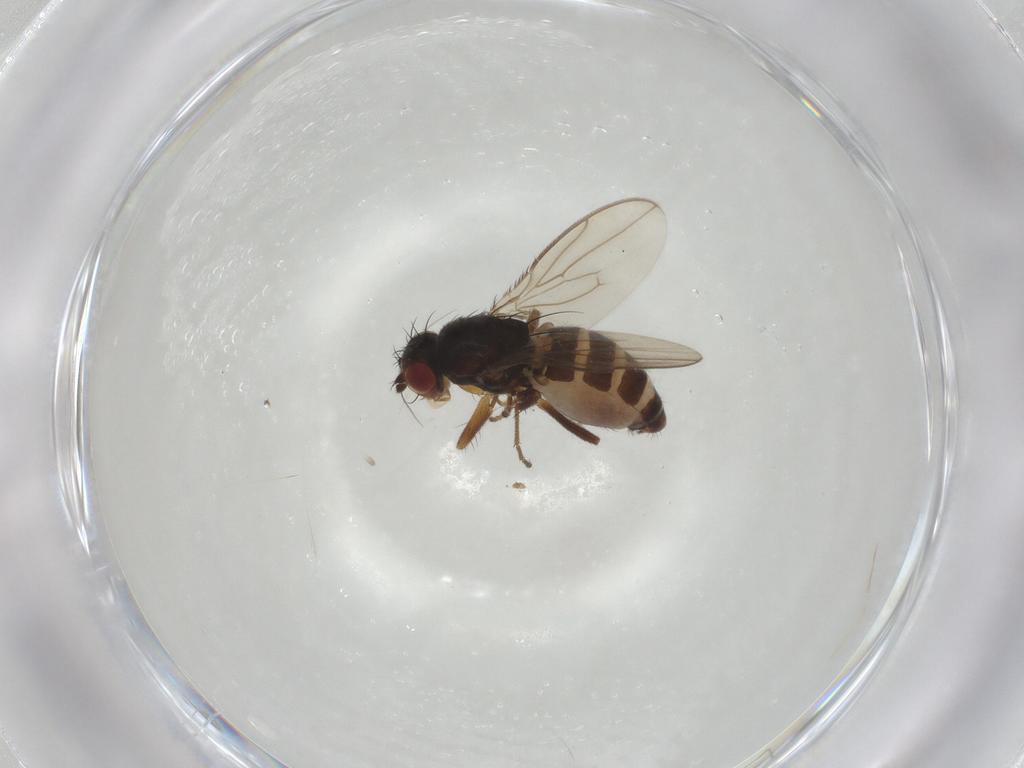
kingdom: Animalia
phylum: Arthropoda
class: Insecta
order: Diptera
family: Sphaeroceridae
